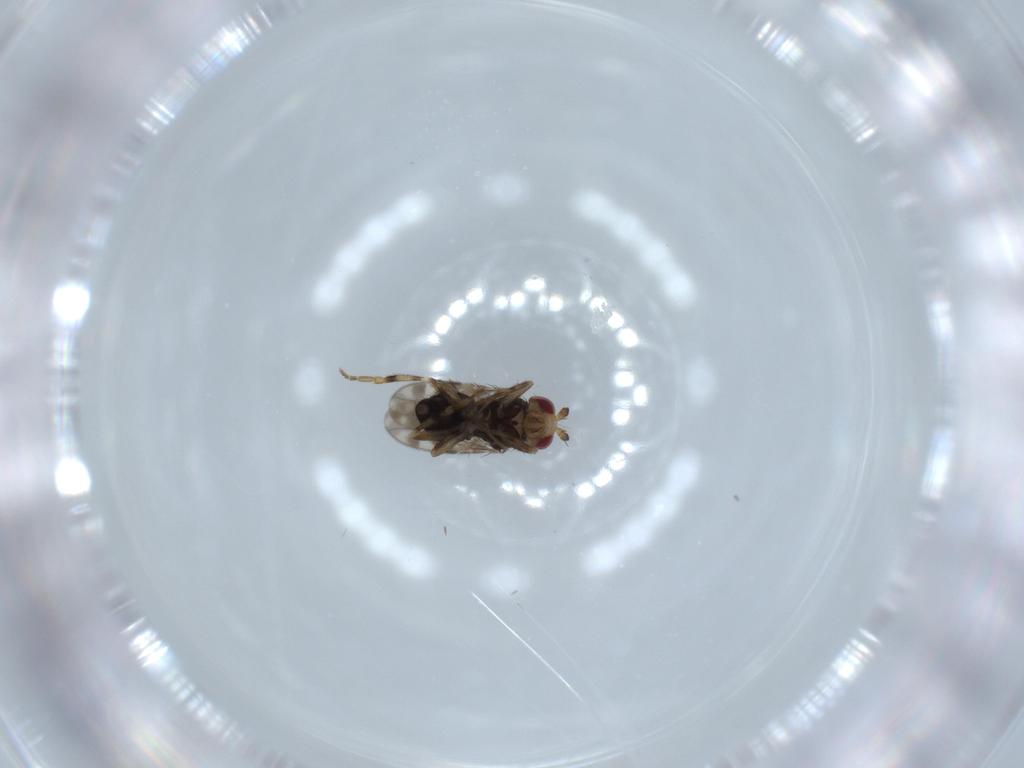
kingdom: Animalia
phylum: Arthropoda
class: Insecta
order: Diptera
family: Sphaeroceridae
